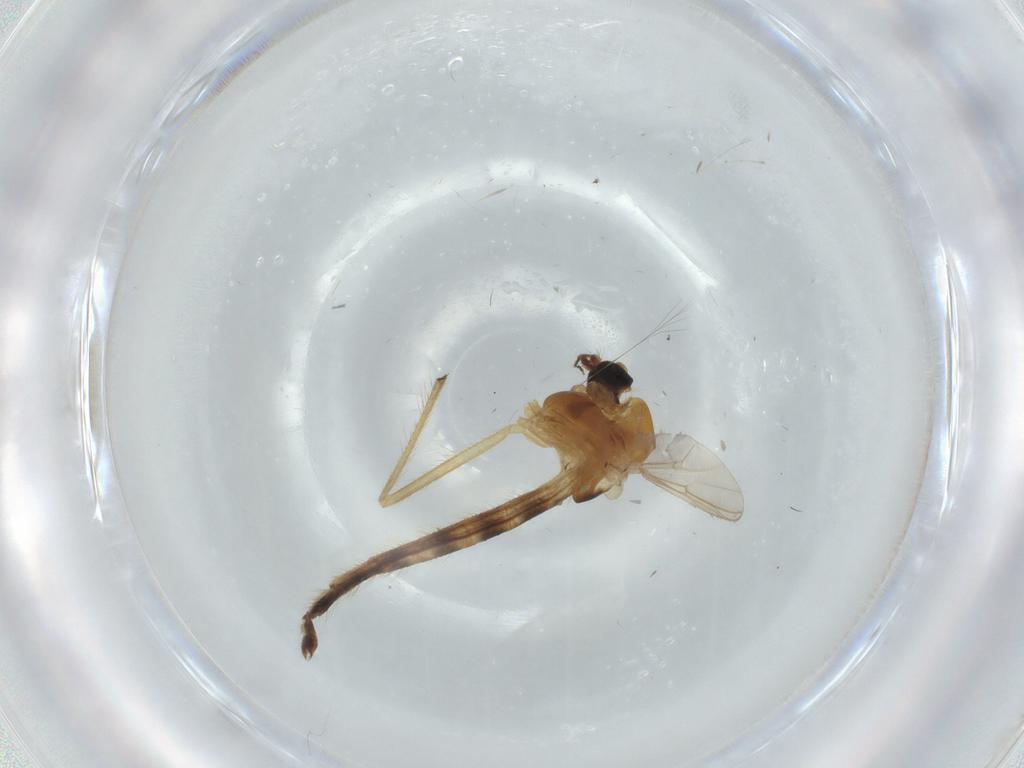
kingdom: Animalia
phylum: Arthropoda
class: Insecta
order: Diptera
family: Chironomidae
